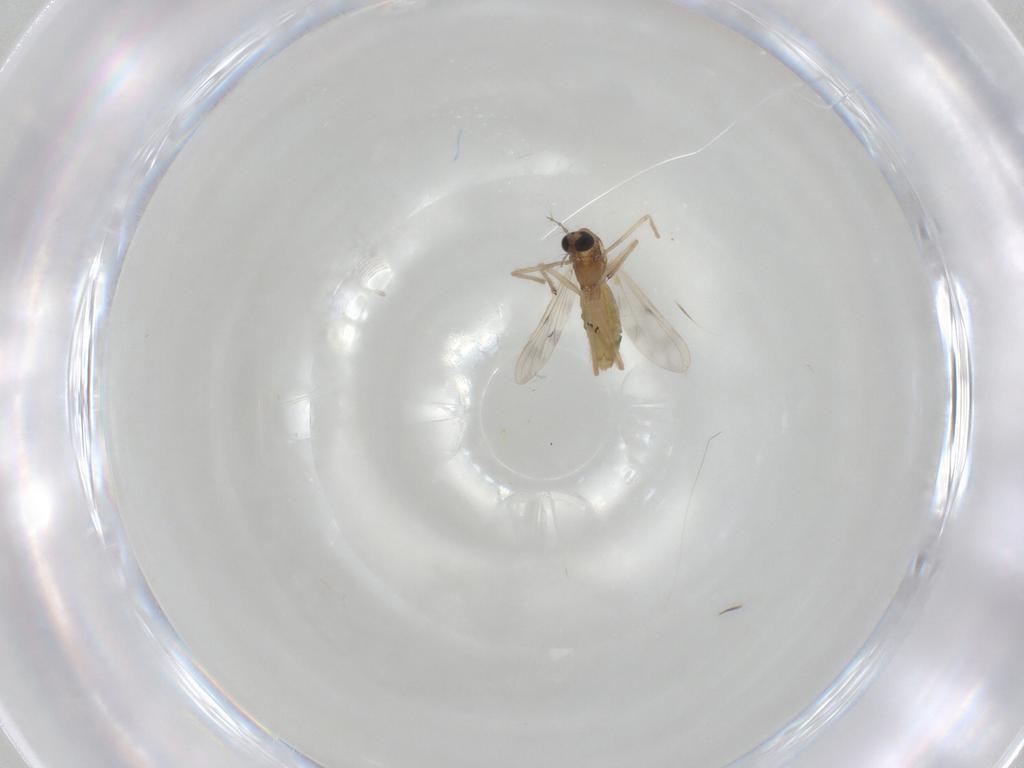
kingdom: Animalia
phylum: Arthropoda
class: Insecta
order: Diptera
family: Chironomidae
